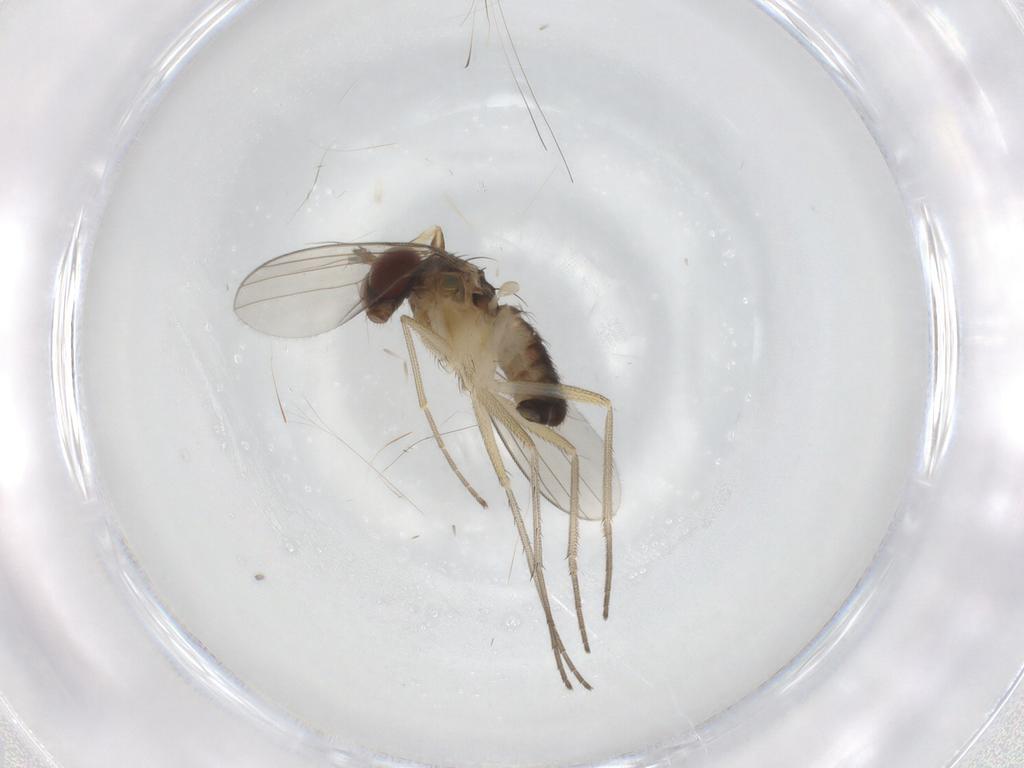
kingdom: Animalia
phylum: Arthropoda
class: Insecta
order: Diptera
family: Dolichopodidae
